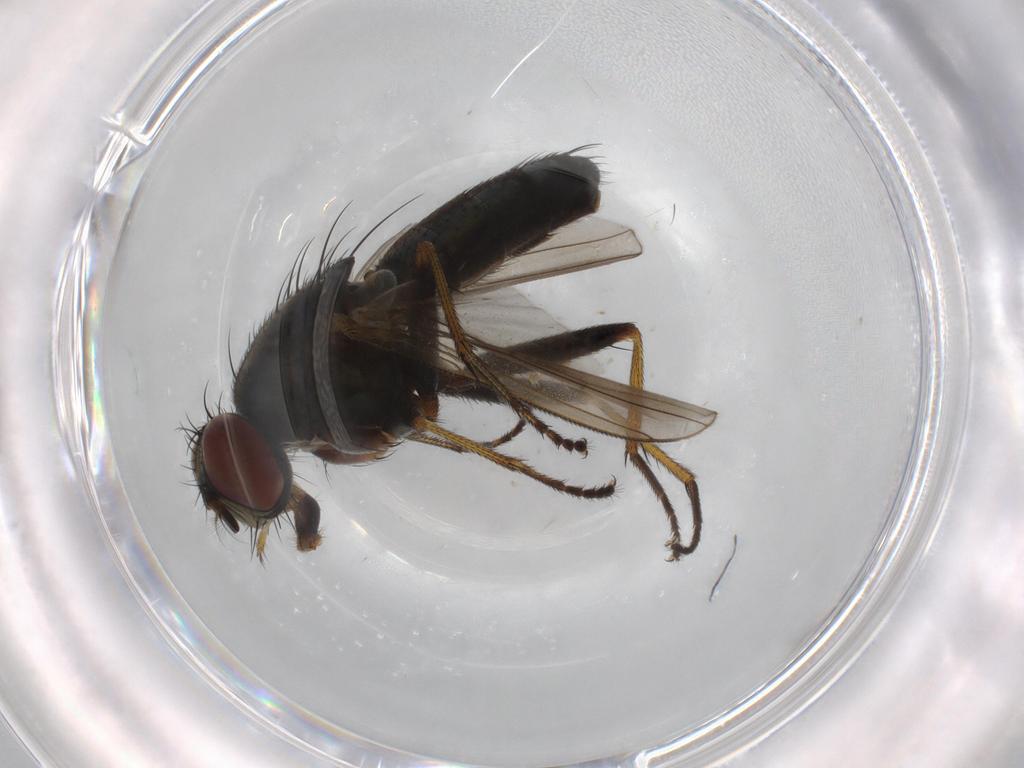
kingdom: Animalia
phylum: Arthropoda
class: Insecta
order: Diptera
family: Muscidae
